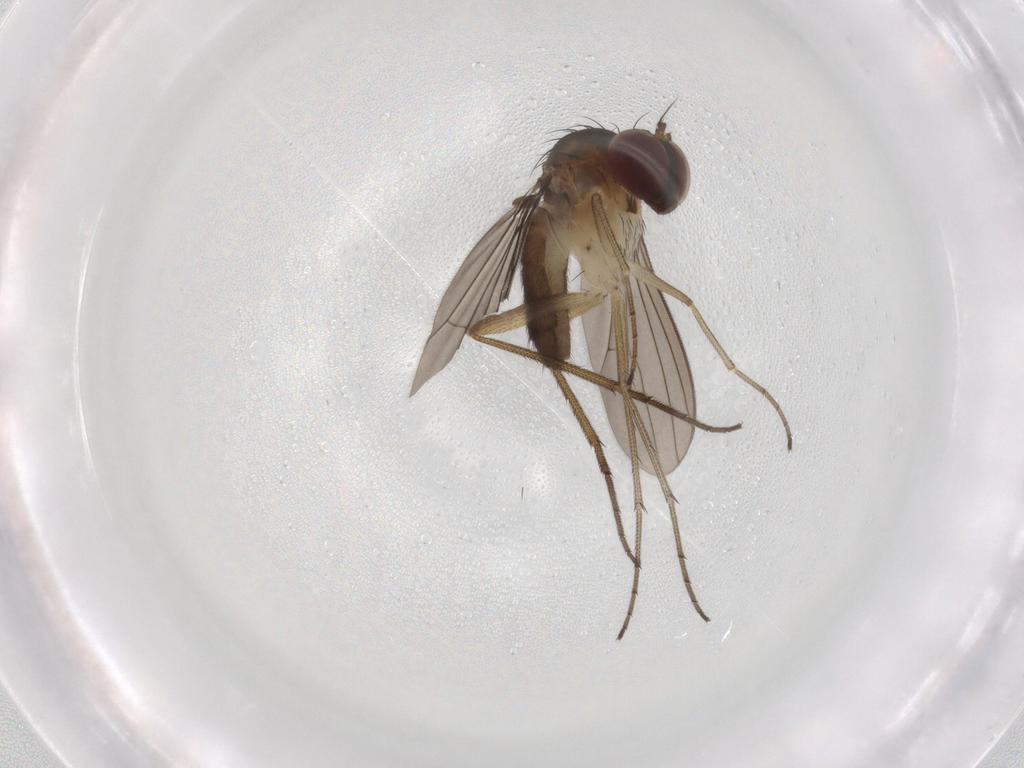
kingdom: Animalia
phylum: Arthropoda
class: Insecta
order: Diptera
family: Dolichopodidae
